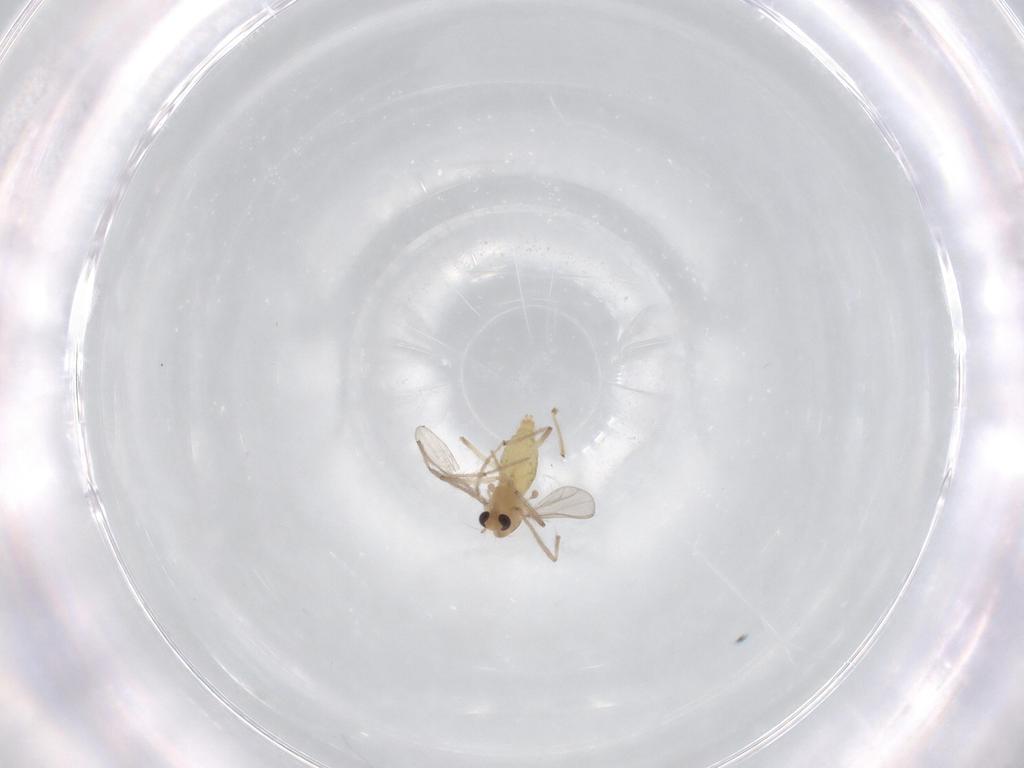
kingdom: Animalia
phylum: Arthropoda
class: Insecta
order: Diptera
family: Chironomidae
